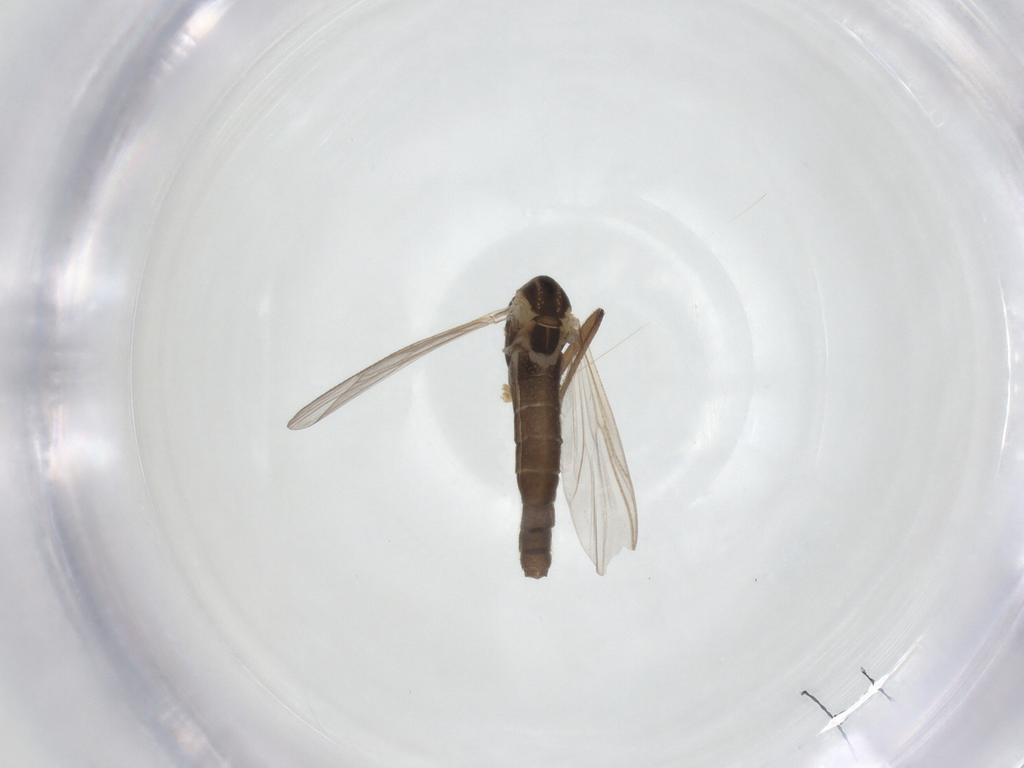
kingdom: Animalia
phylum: Arthropoda
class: Insecta
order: Diptera
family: Chironomidae
